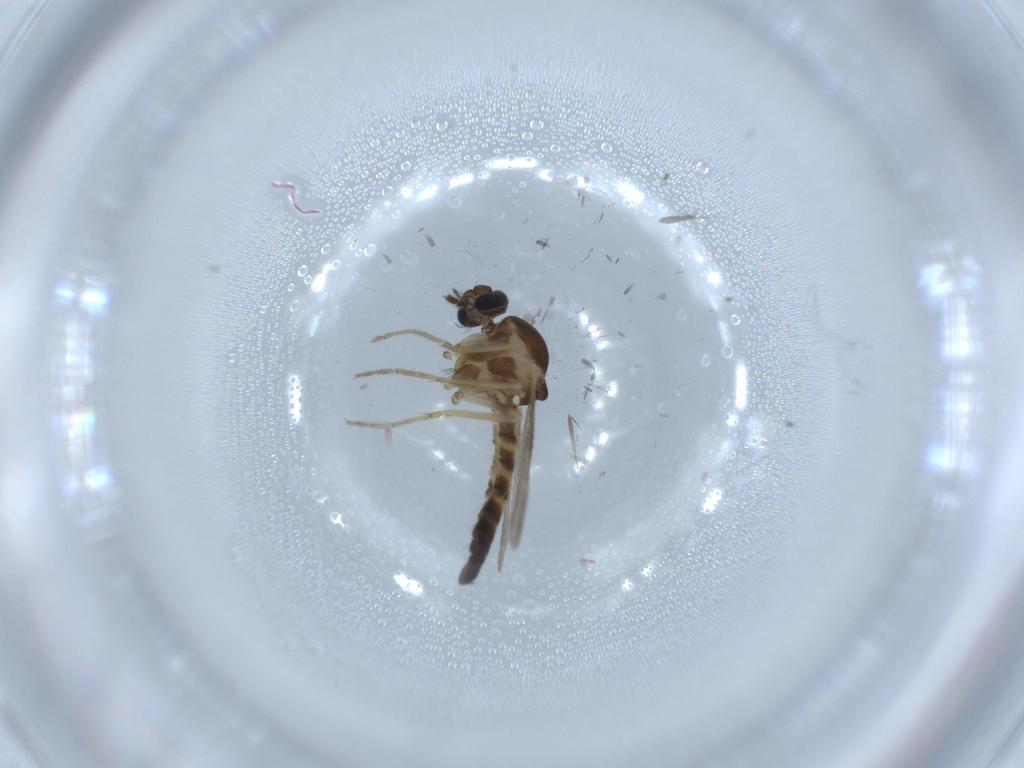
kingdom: Animalia
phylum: Arthropoda
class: Insecta
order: Diptera
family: Ceratopogonidae
